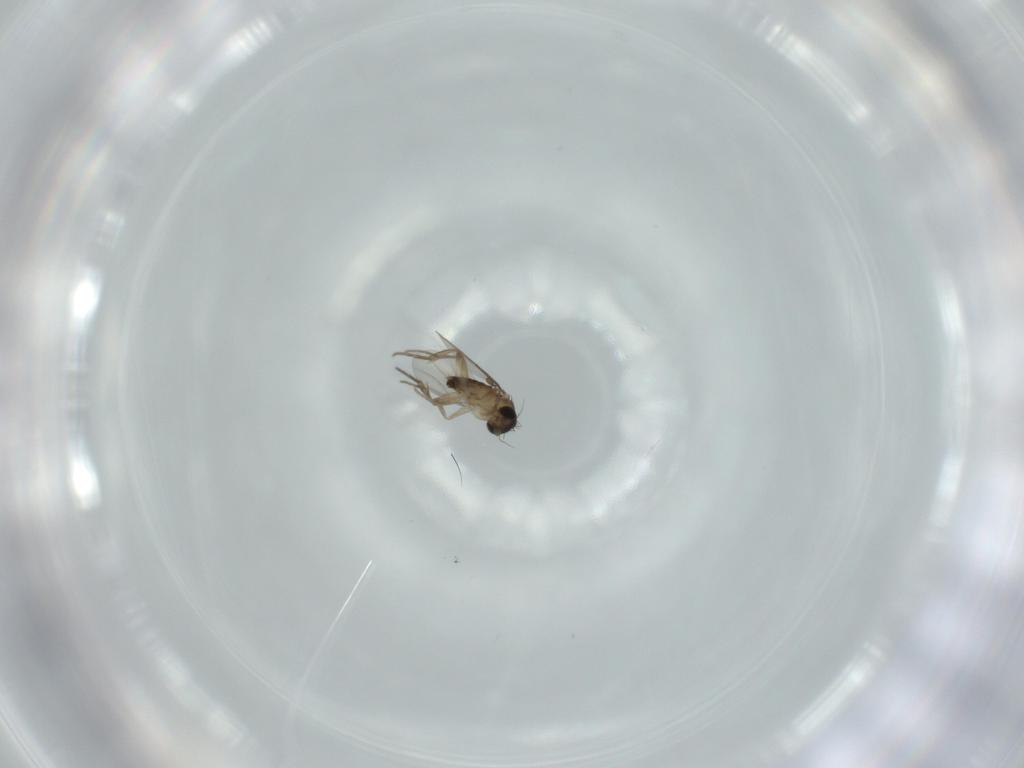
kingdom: Animalia
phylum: Arthropoda
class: Insecta
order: Diptera
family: Phoridae
